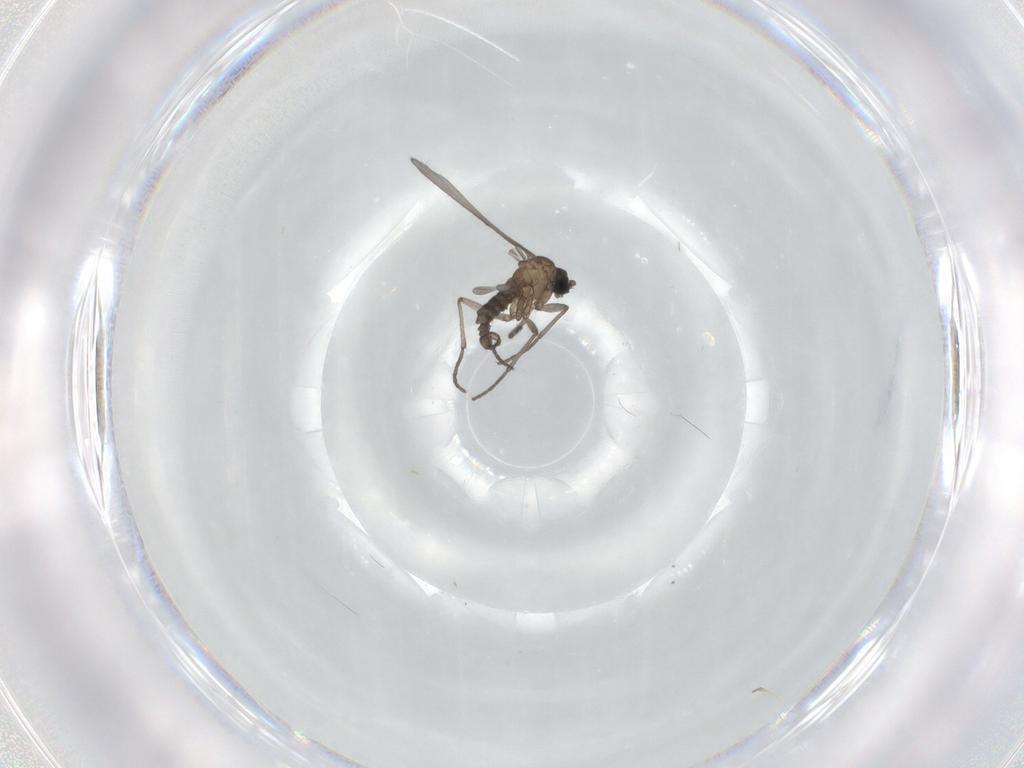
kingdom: Animalia
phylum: Arthropoda
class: Insecta
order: Diptera
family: Sciaridae
